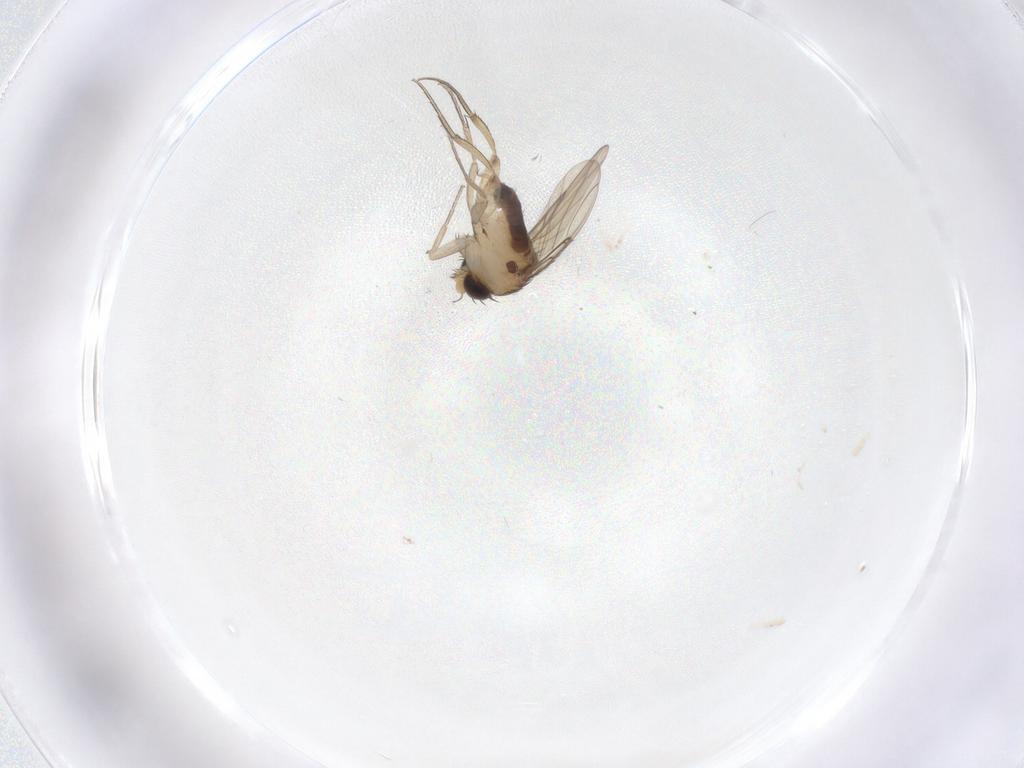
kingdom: Animalia
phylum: Arthropoda
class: Insecta
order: Diptera
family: Phoridae
